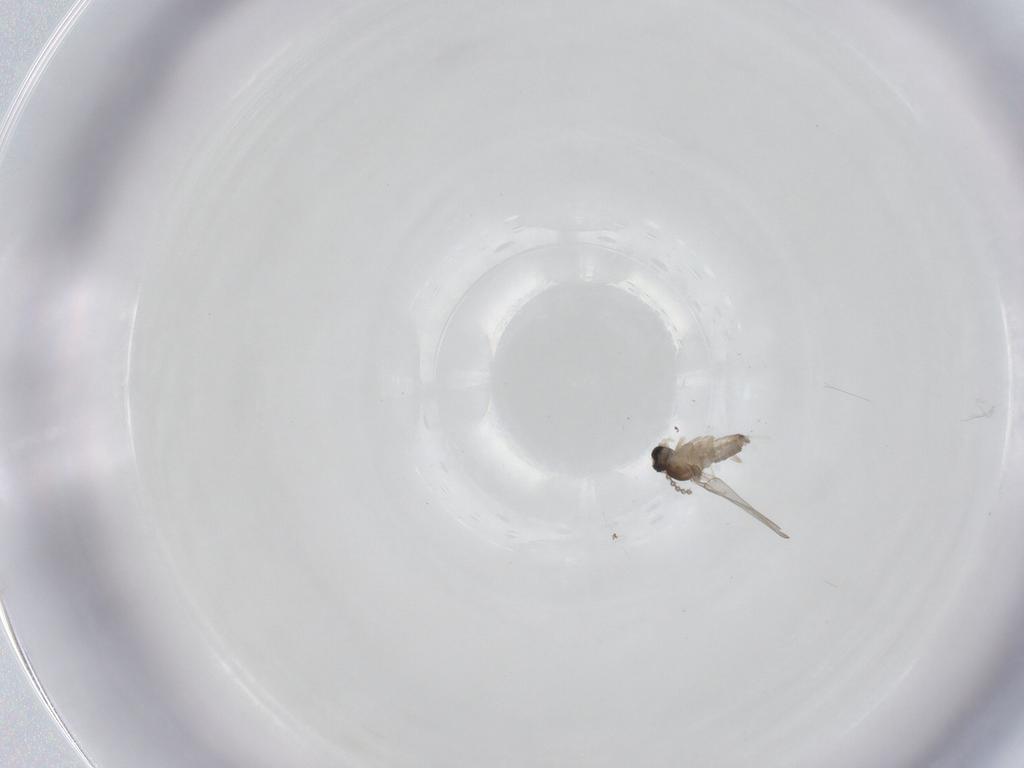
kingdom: Animalia
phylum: Arthropoda
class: Insecta
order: Diptera
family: Cecidomyiidae
